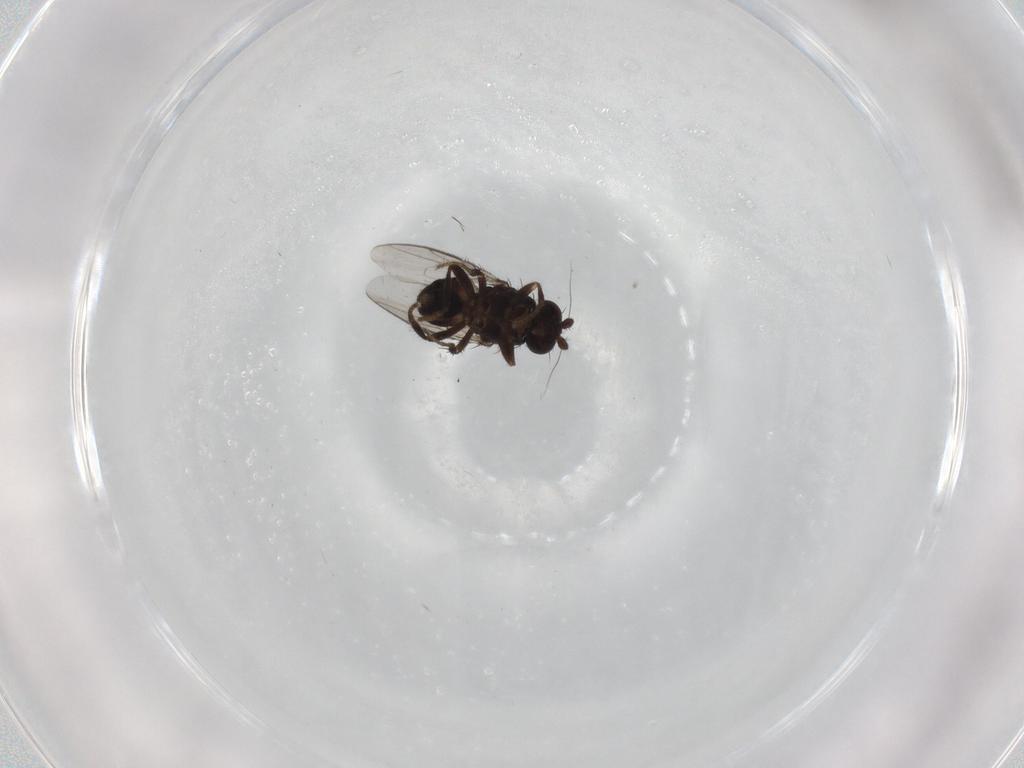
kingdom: Animalia
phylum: Arthropoda
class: Insecta
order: Diptera
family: Sphaeroceridae
